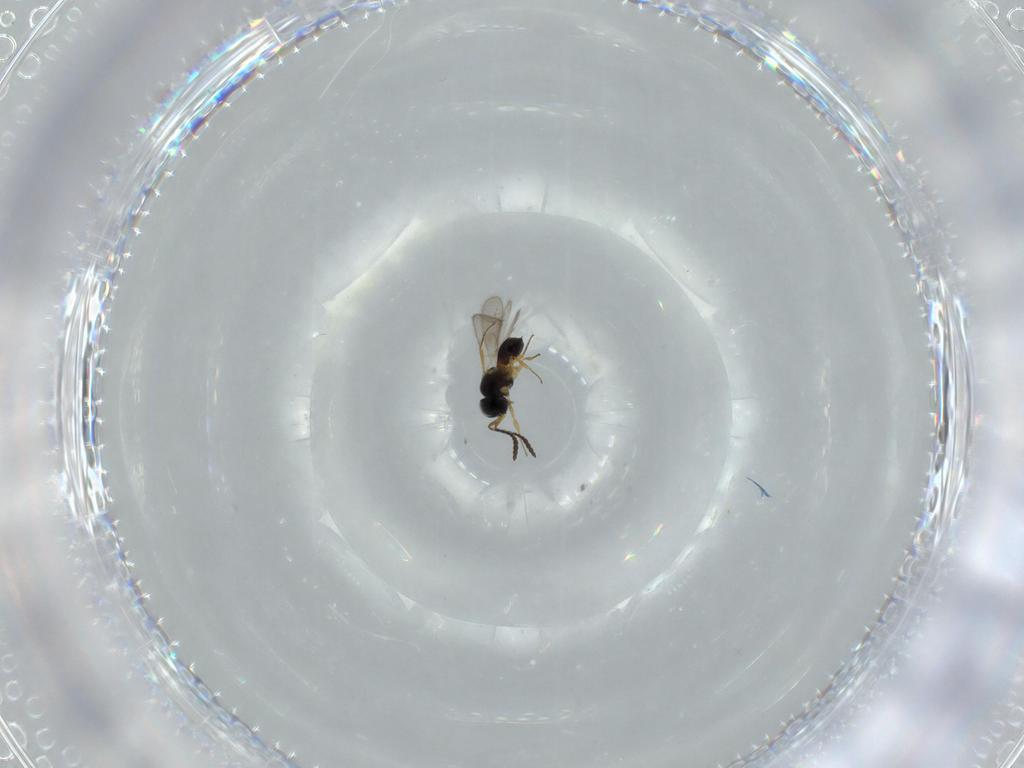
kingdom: Animalia
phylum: Arthropoda
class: Insecta
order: Hymenoptera
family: Scelionidae
